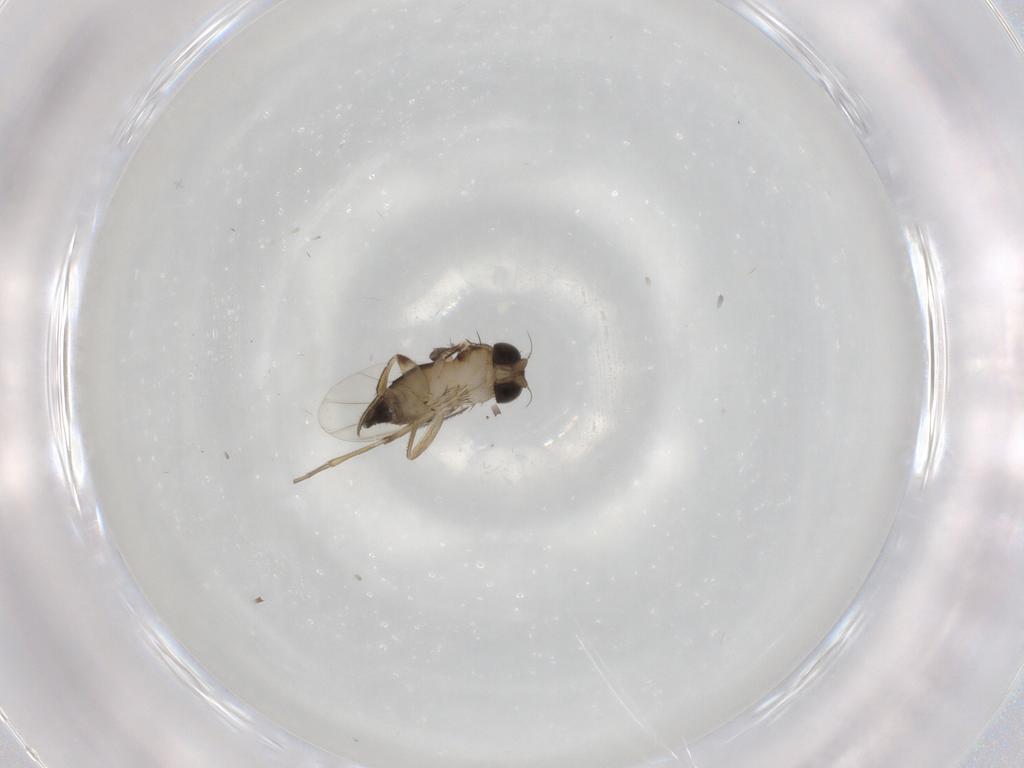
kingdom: Animalia
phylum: Arthropoda
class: Insecta
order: Diptera
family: Phoridae
